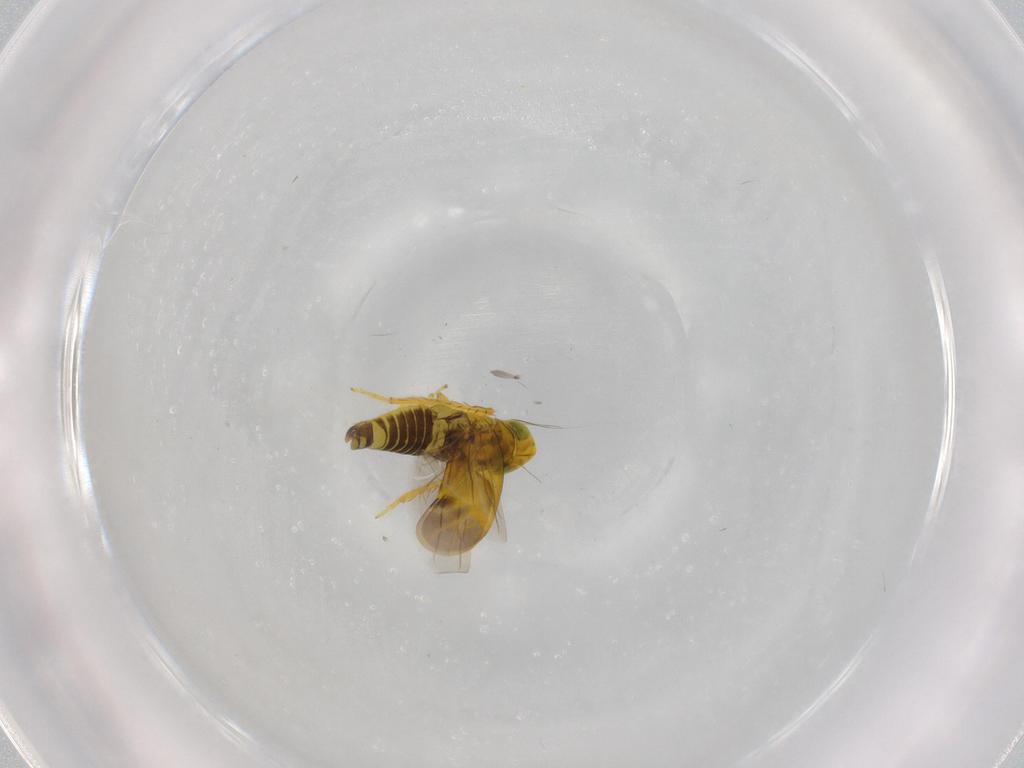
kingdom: Animalia
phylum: Arthropoda
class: Insecta
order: Hemiptera
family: Cicadellidae
